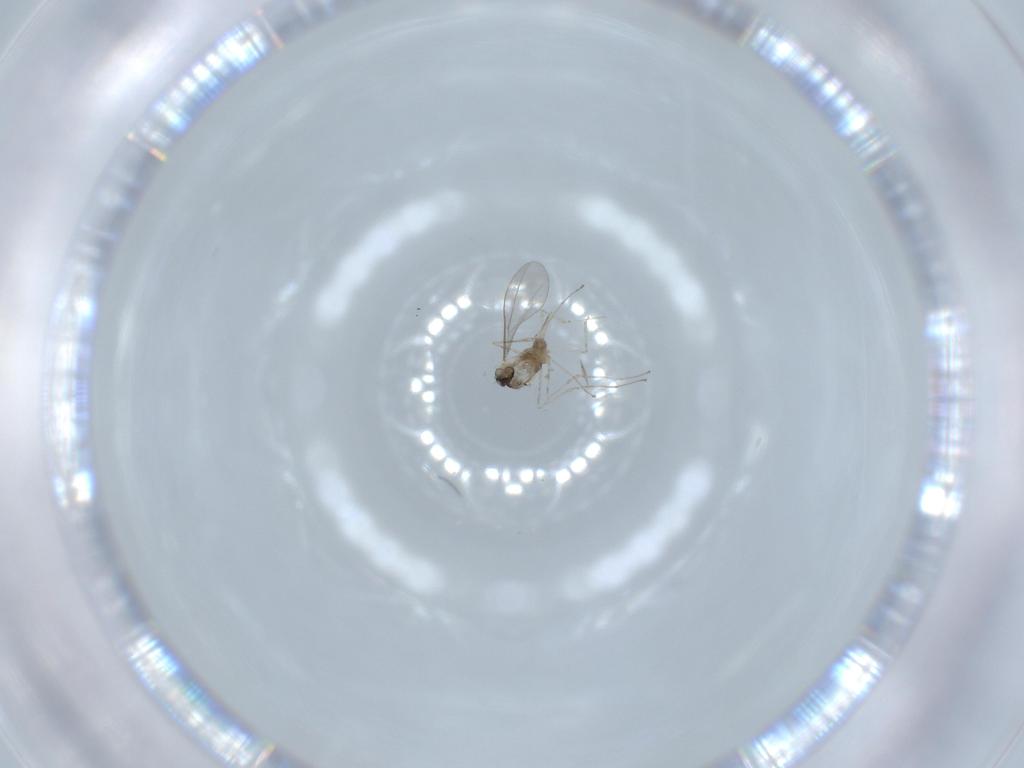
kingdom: Animalia
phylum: Arthropoda
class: Insecta
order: Diptera
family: Cecidomyiidae
